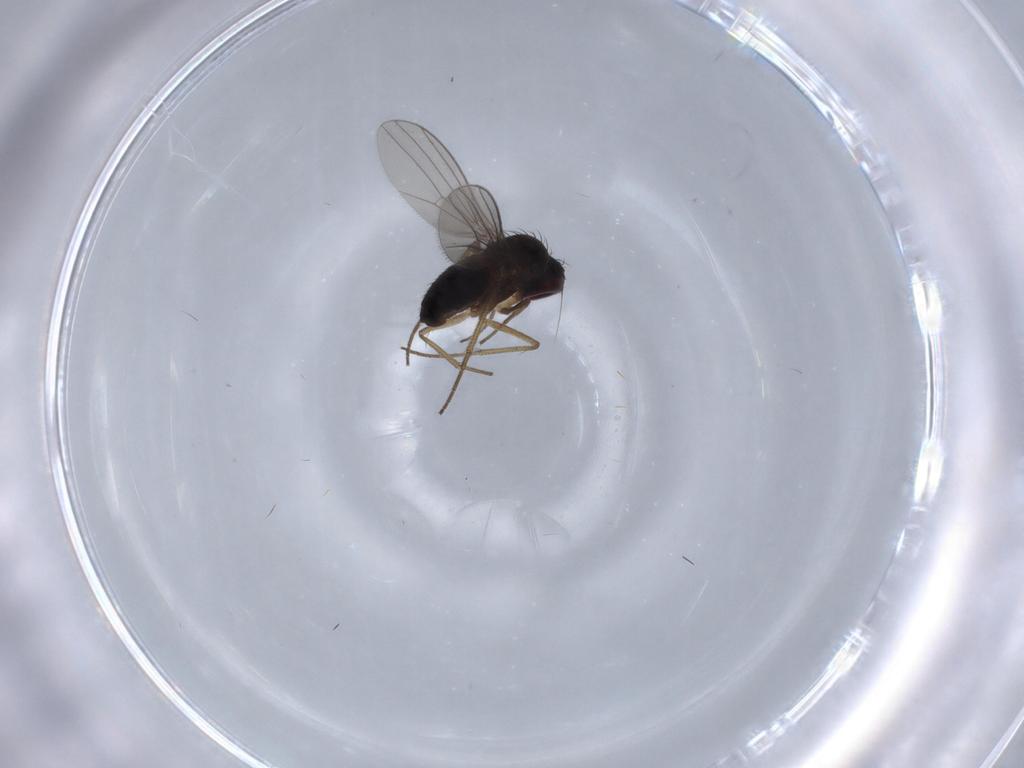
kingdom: Animalia
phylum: Arthropoda
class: Insecta
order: Diptera
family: Dolichopodidae
